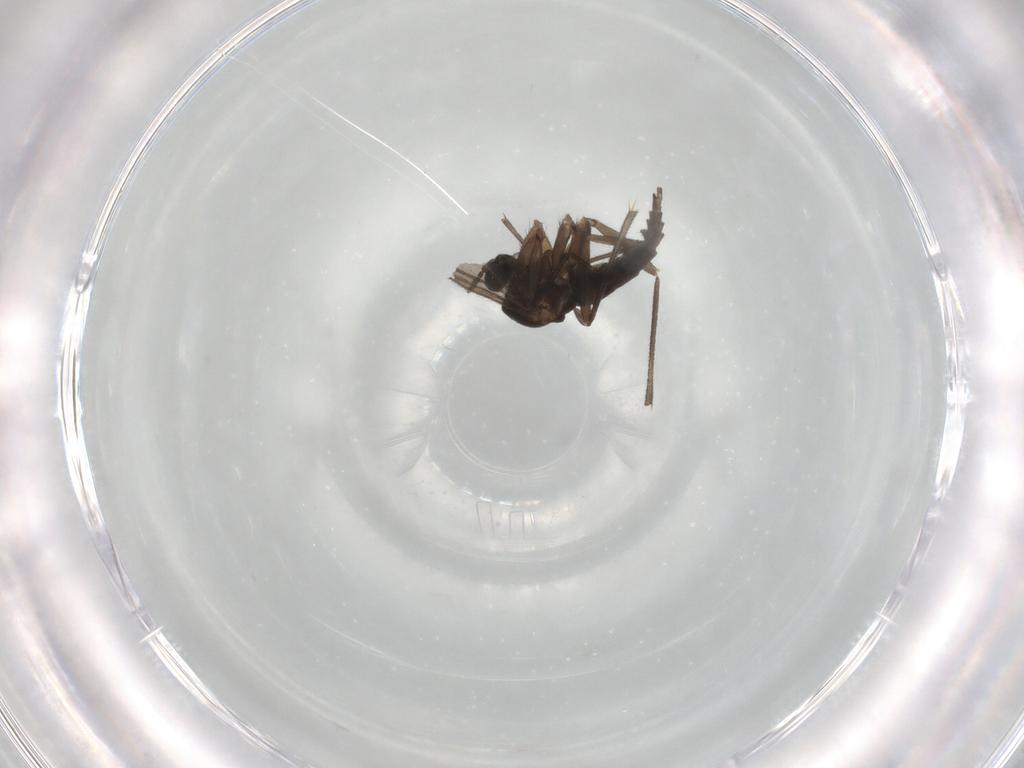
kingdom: Animalia
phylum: Arthropoda
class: Insecta
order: Diptera
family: Sciaridae
